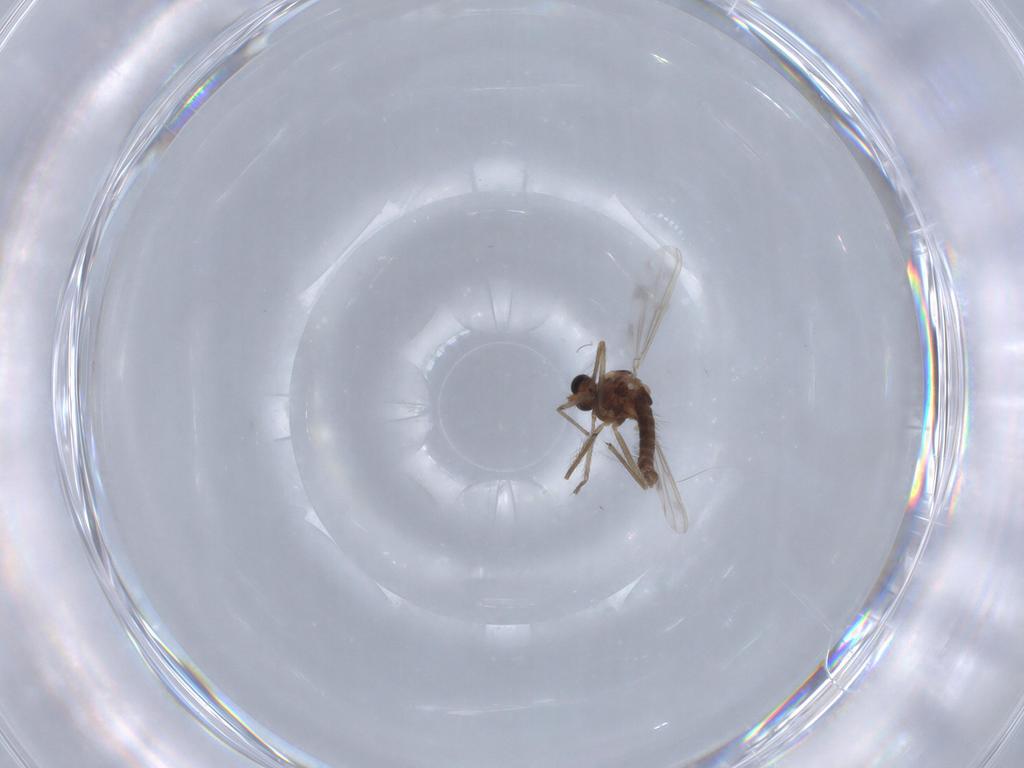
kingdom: Animalia
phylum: Arthropoda
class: Insecta
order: Diptera
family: Chironomidae
